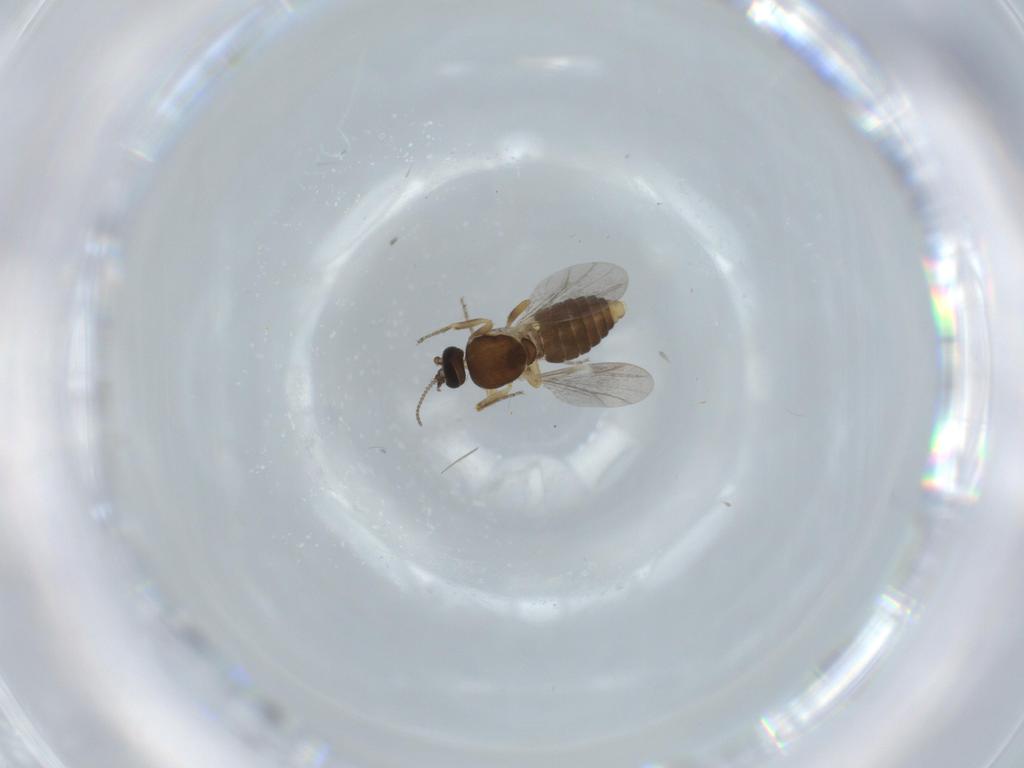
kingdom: Animalia
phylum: Arthropoda
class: Insecta
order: Diptera
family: Ceratopogonidae
